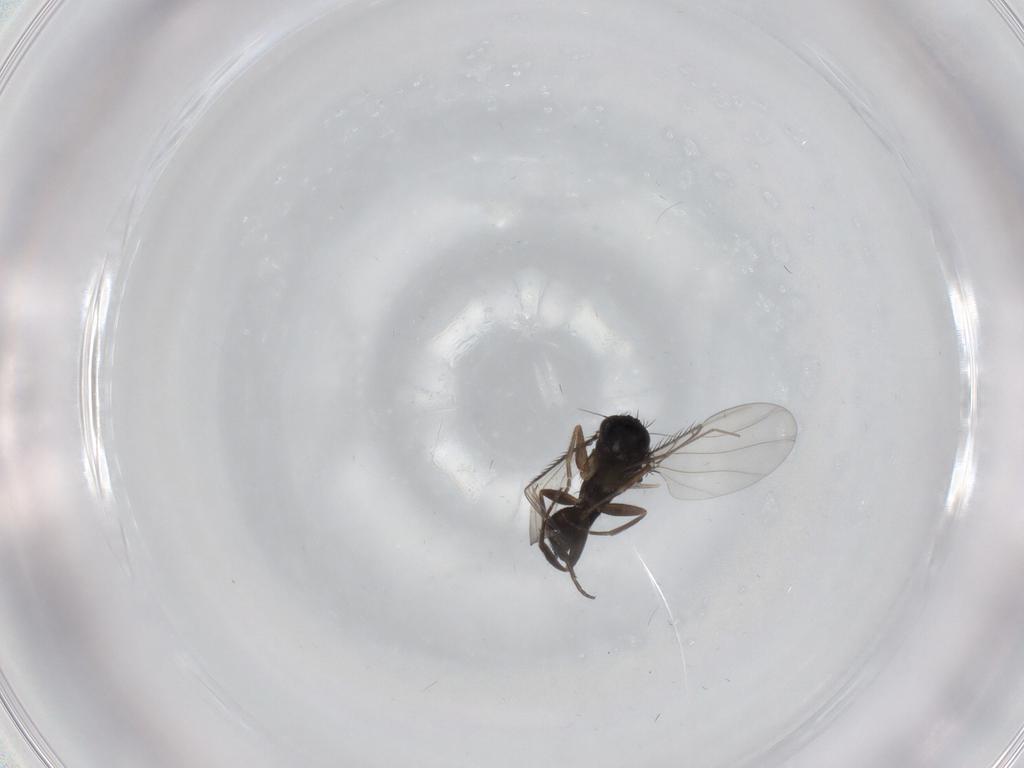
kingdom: Animalia
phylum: Arthropoda
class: Insecta
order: Diptera
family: Phoridae
